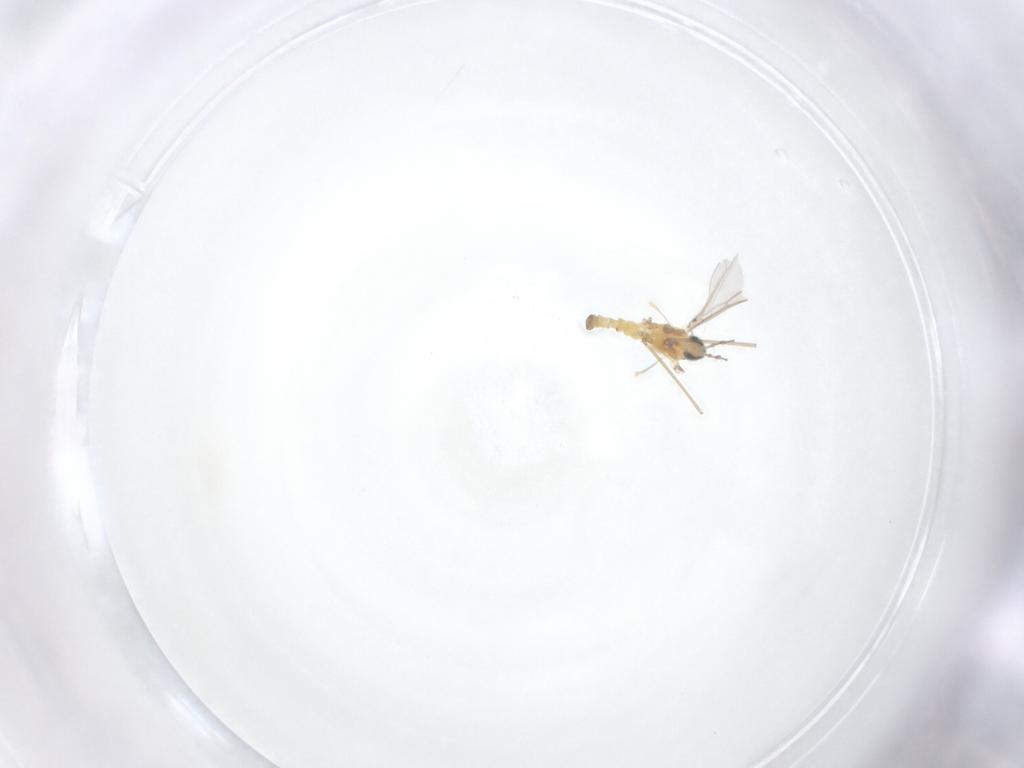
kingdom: Animalia
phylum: Arthropoda
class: Insecta
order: Diptera
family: Cecidomyiidae
